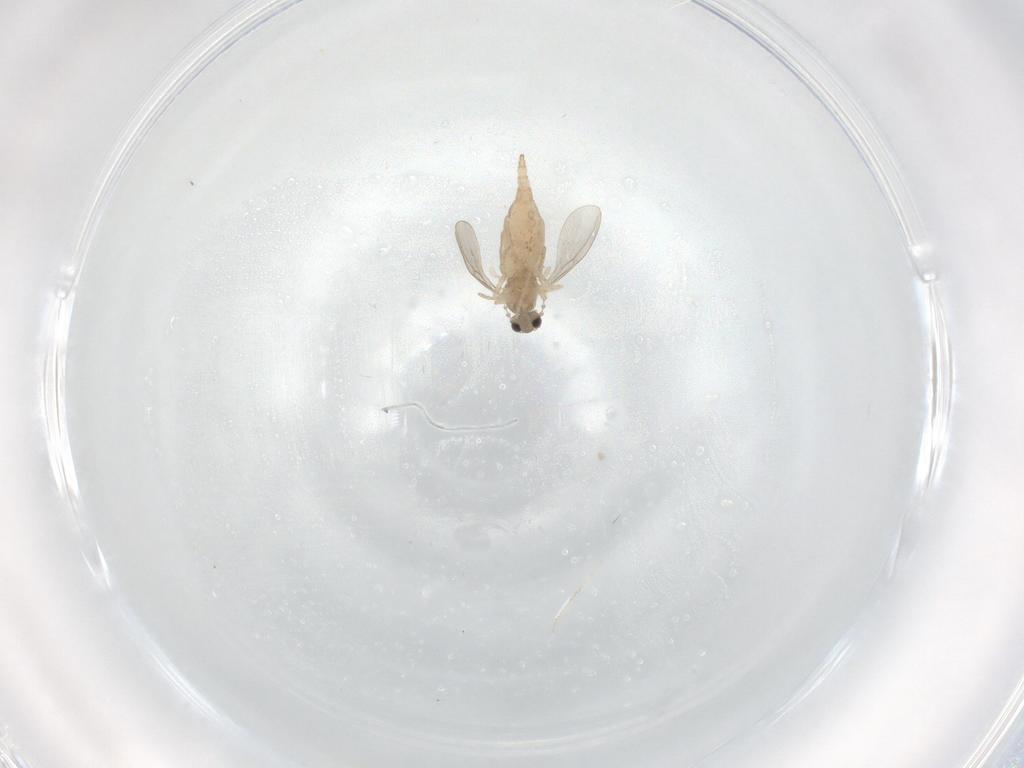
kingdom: Animalia
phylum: Arthropoda
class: Insecta
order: Diptera
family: Cecidomyiidae
